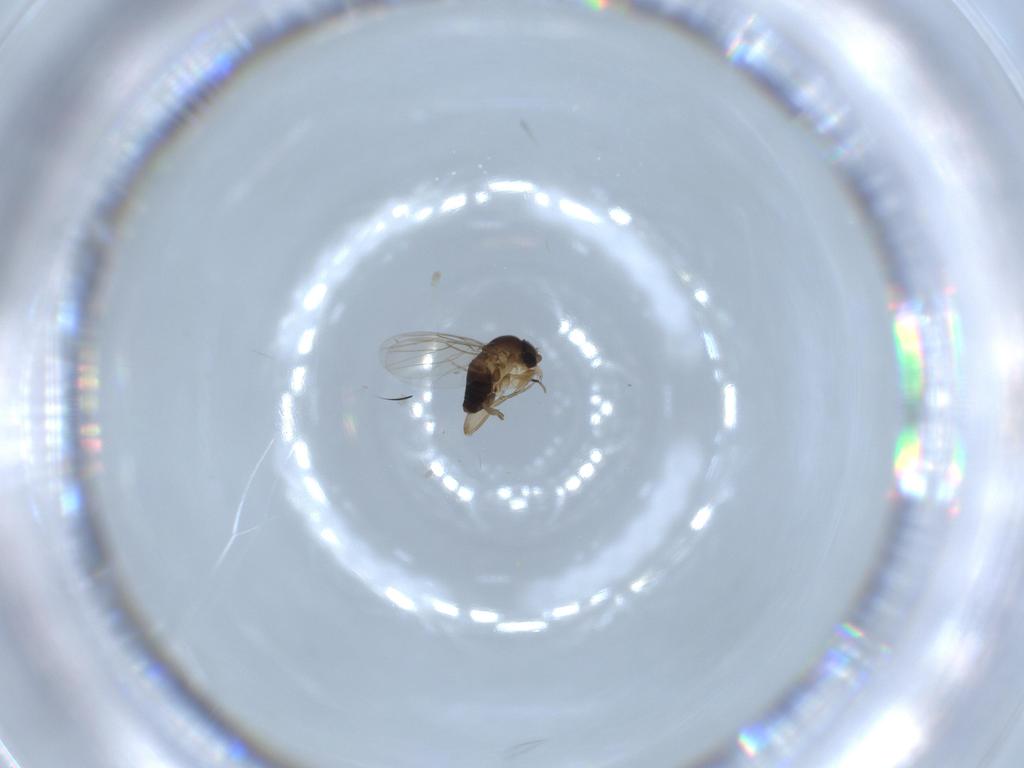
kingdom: Animalia
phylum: Arthropoda
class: Insecta
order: Diptera
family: Phoridae
